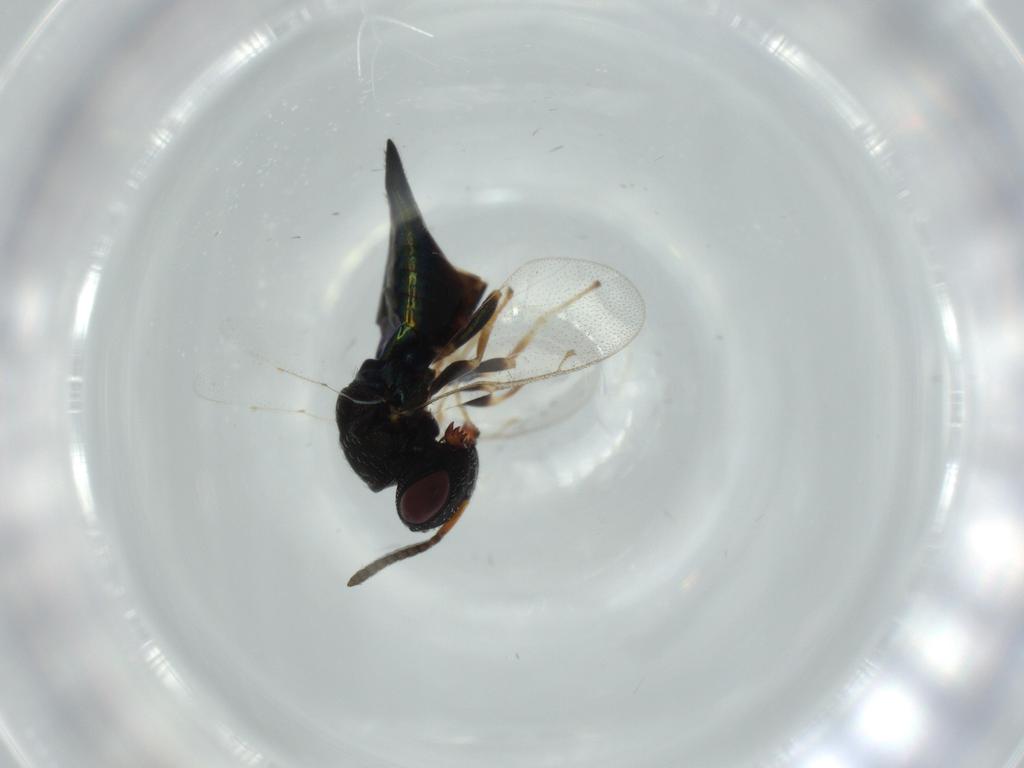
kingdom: Animalia
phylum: Arthropoda
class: Insecta
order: Hymenoptera
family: Pteromalidae
